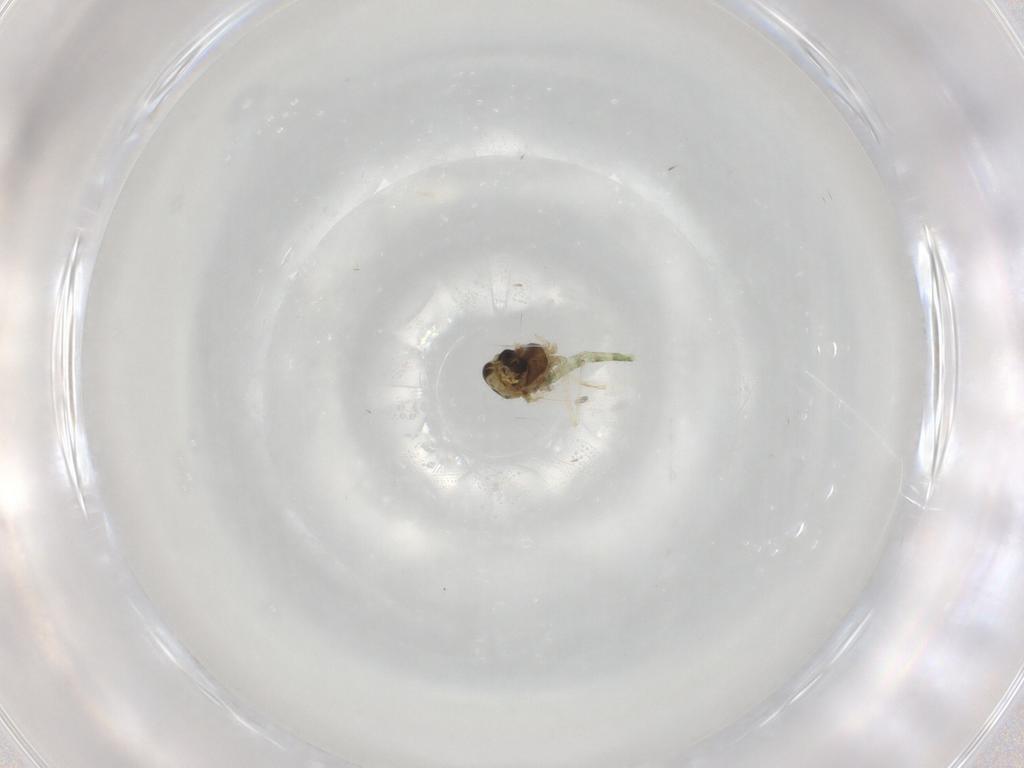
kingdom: Animalia
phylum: Arthropoda
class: Insecta
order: Diptera
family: Chironomidae
